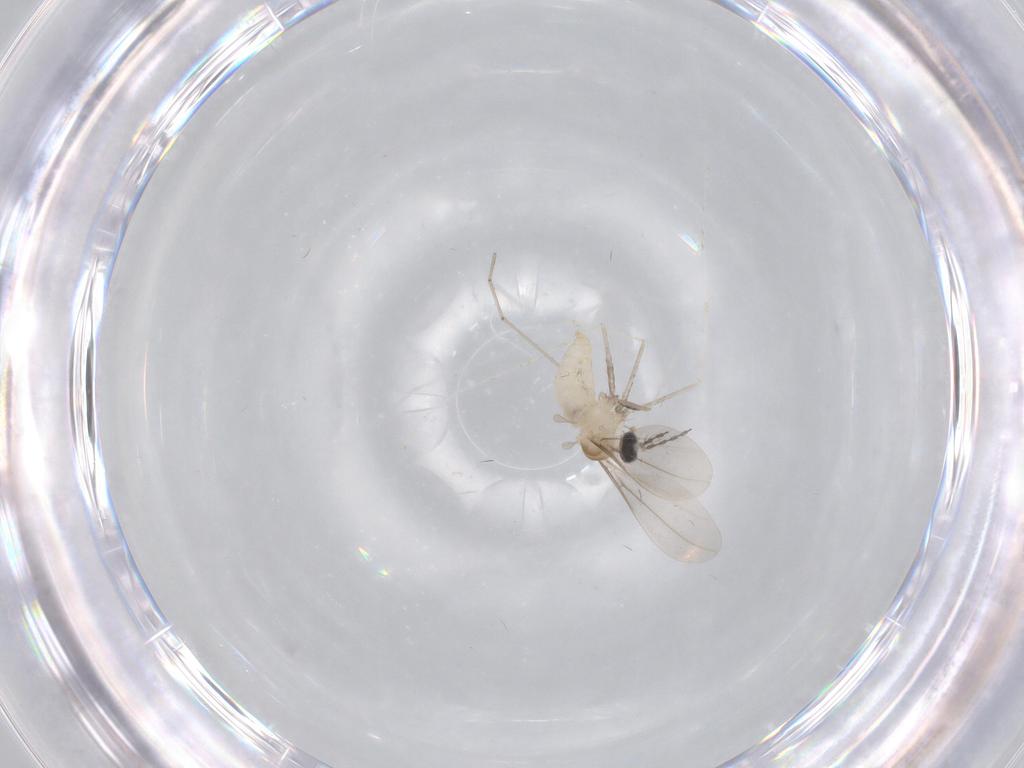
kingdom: Animalia
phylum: Arthropoda
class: Insecta
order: Diptera
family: Cecidomyiidae
